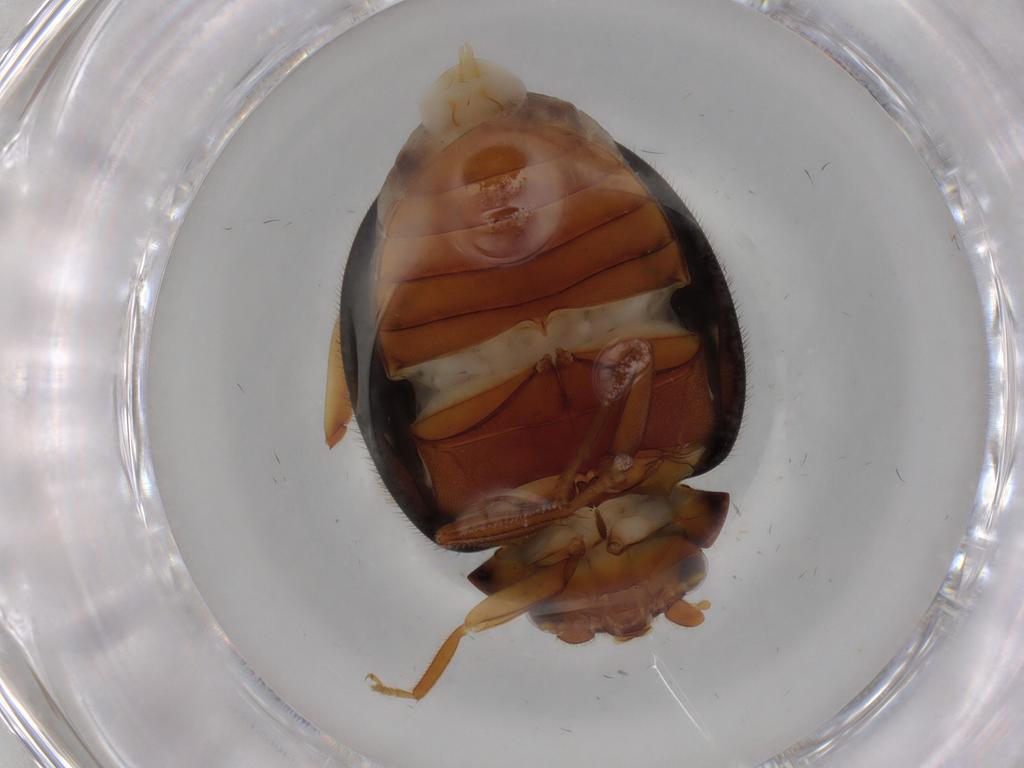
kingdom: Animalia
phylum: Arthropoda
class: Insecta
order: Coleoptera
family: Scirtidae
